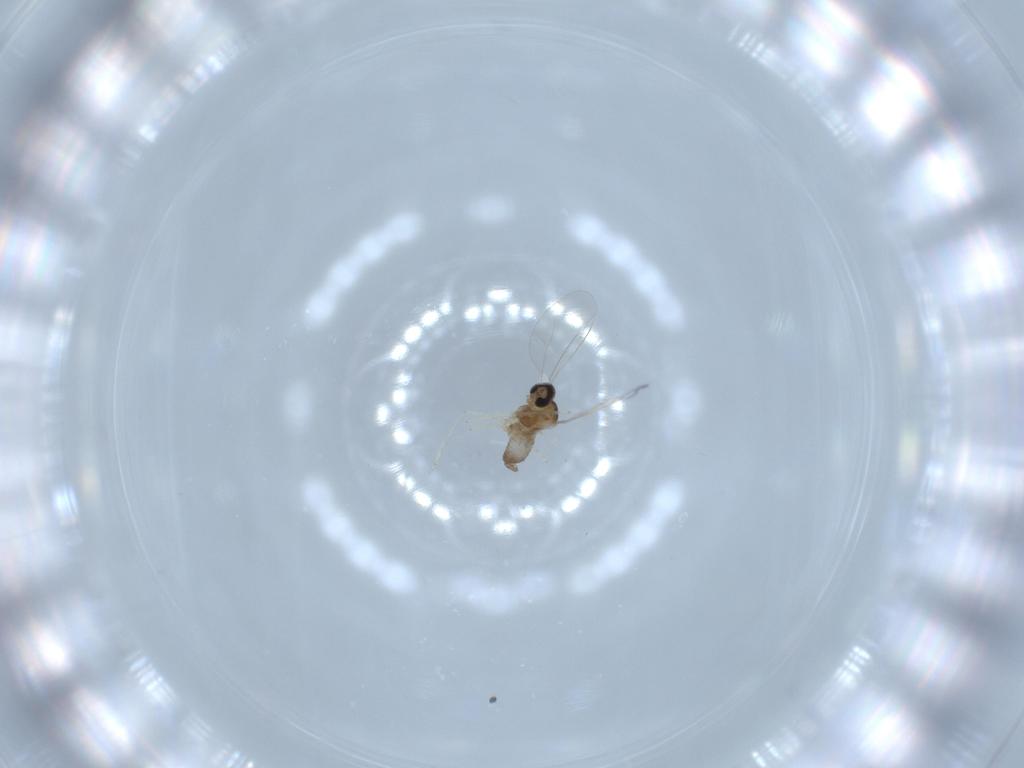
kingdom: Animalia
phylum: Arthropoda
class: Insecta
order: Diptera
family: Cecidomyiidae
